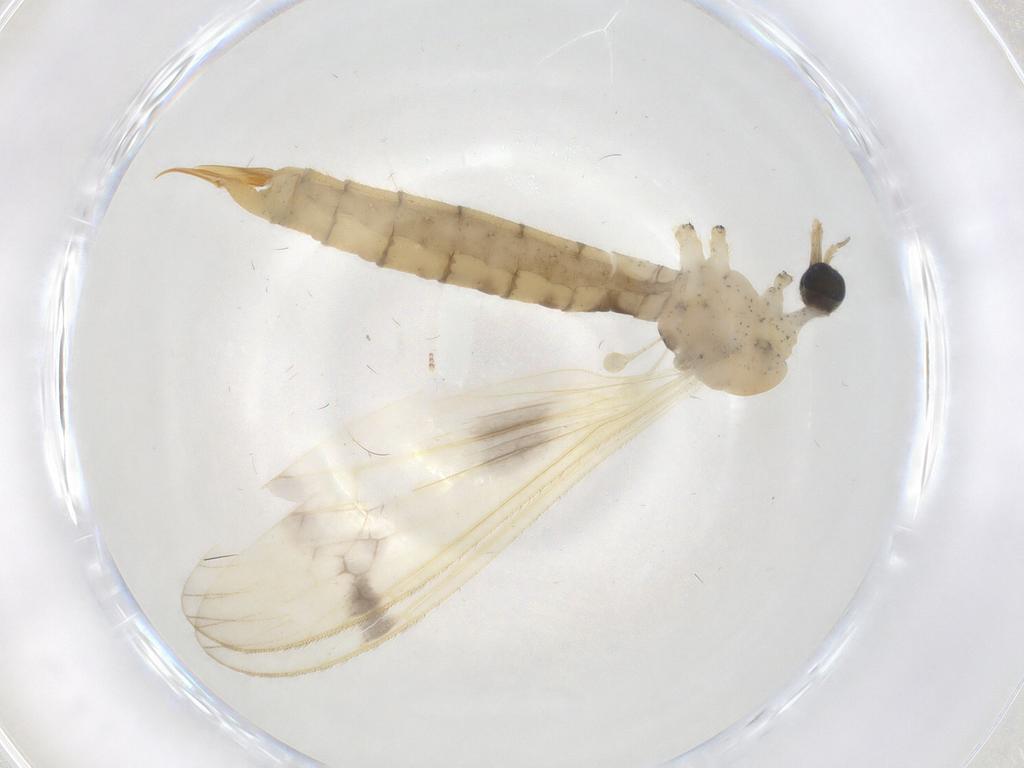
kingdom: Animalia
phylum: Arthropoda
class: Insecta
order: Diptera
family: Limoniidae
